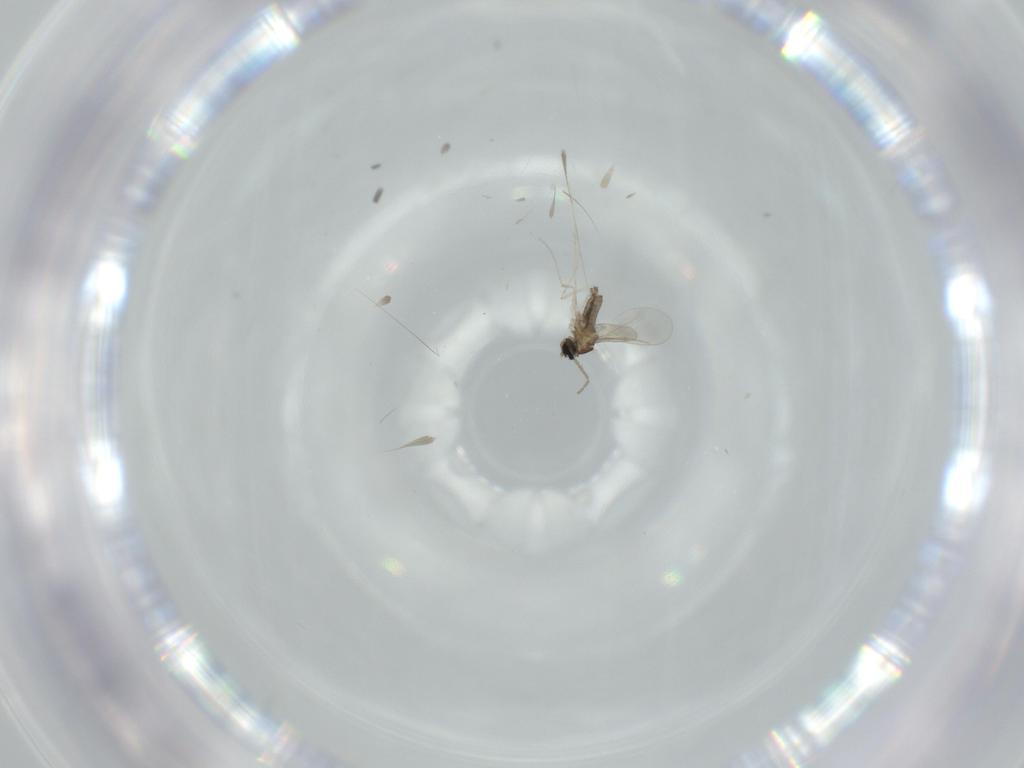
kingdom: Animalia
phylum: Arthropoda
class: Insecta
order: Diptera
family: Cecidomyiidae
